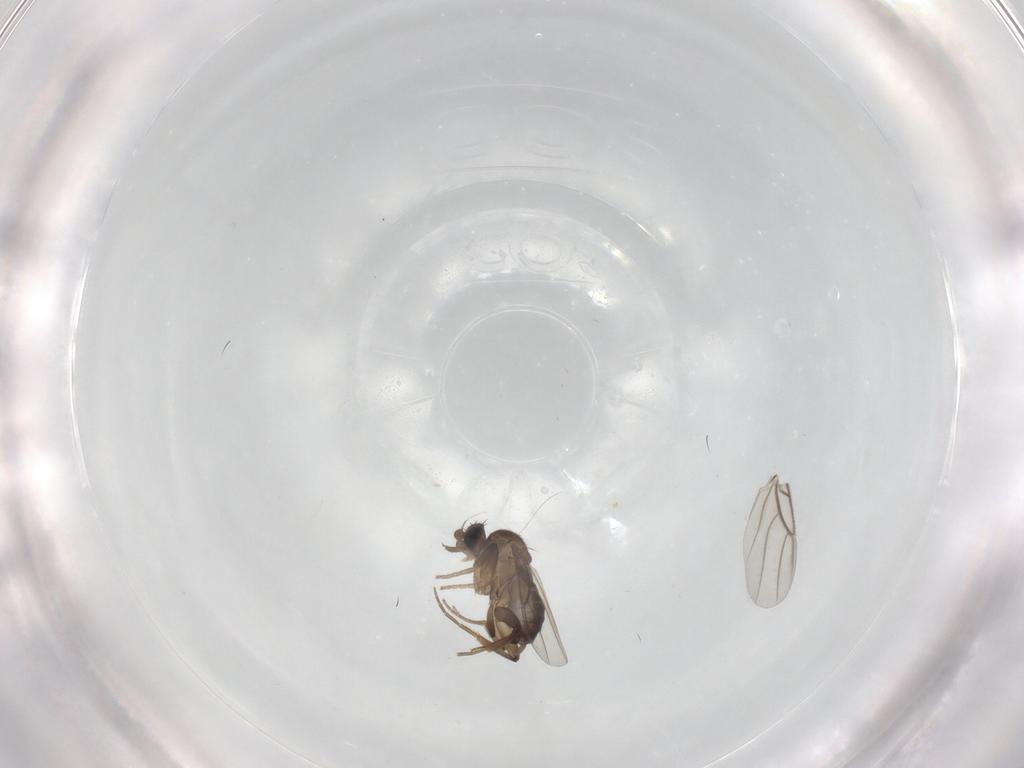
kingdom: Animalia
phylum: Arthropoda
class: Insecta
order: Diptera
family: Phoridae
